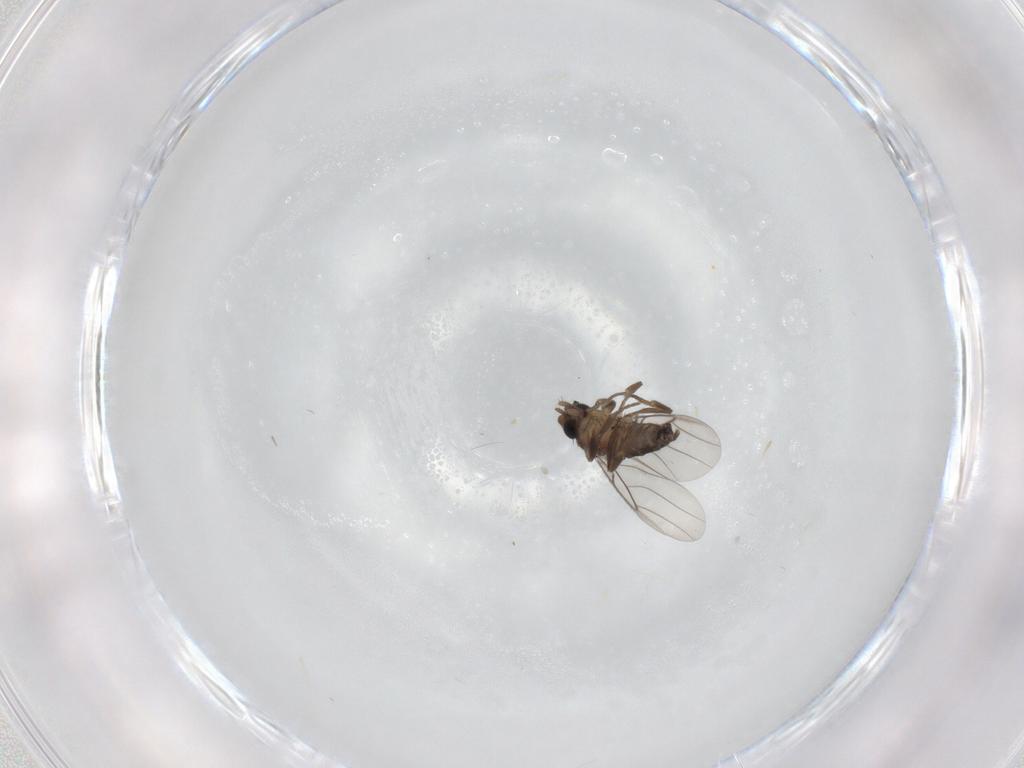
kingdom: Animalia
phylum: Arthropoda
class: Insecta
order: Diptera
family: Phoridae
